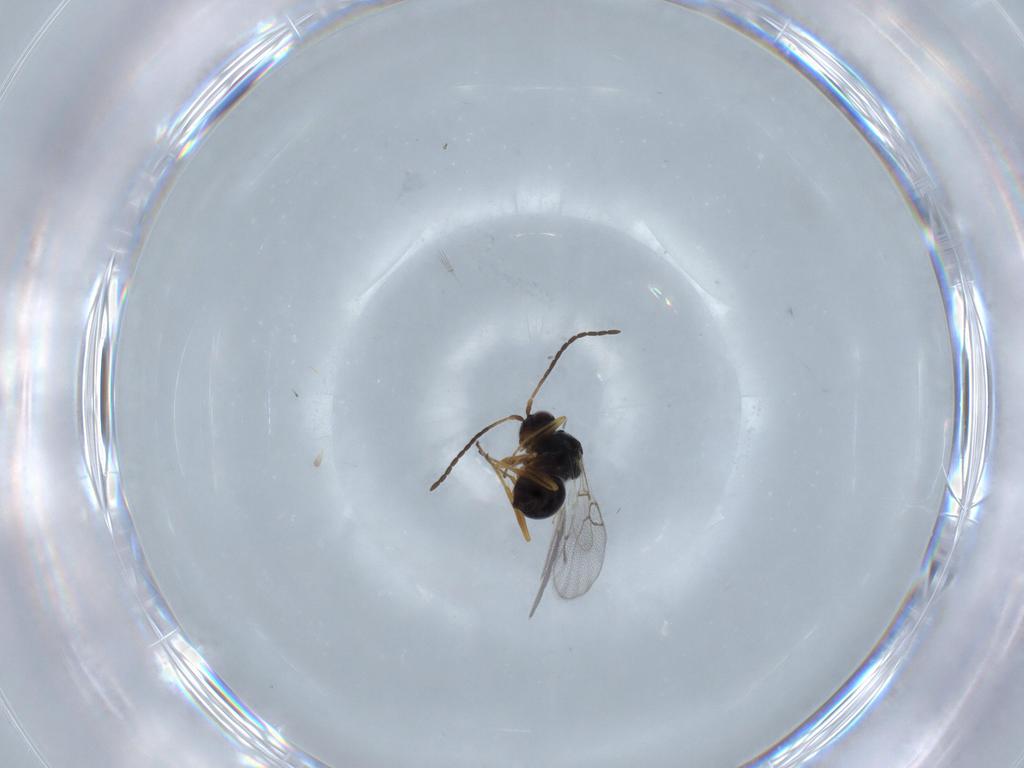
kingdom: Animalia
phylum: Arthropoda
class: Insecta
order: Hymenoptera
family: Figitidae
